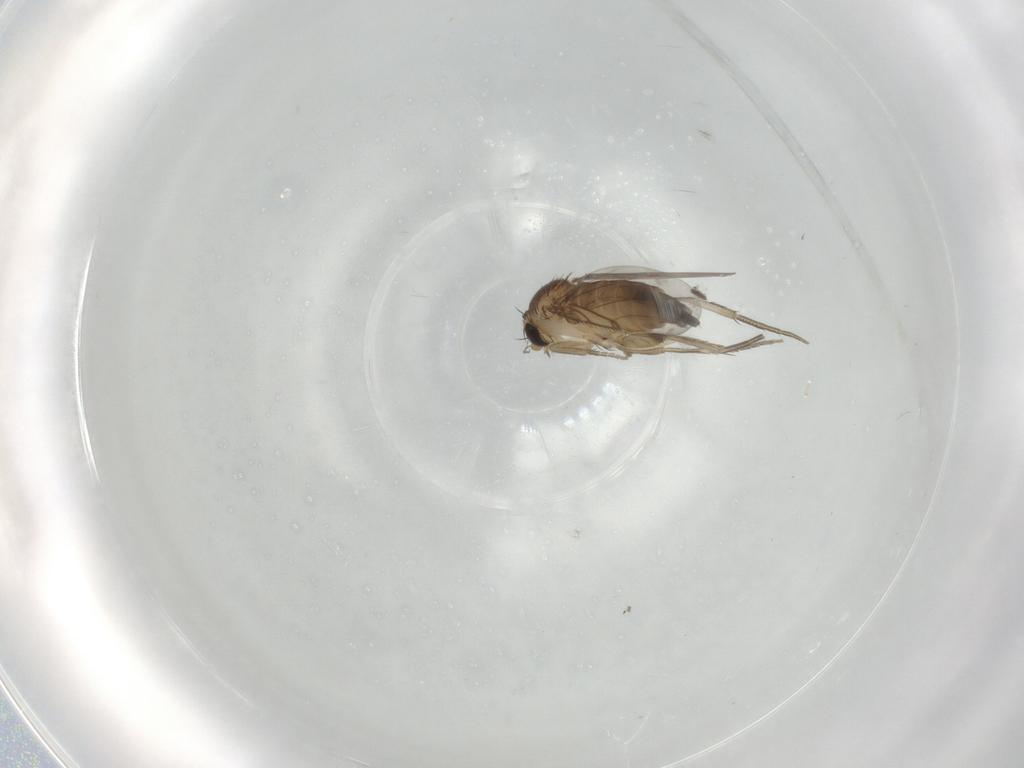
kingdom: Animalia
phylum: Arthropoda
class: Insecta
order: Diptera
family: Phoridae
